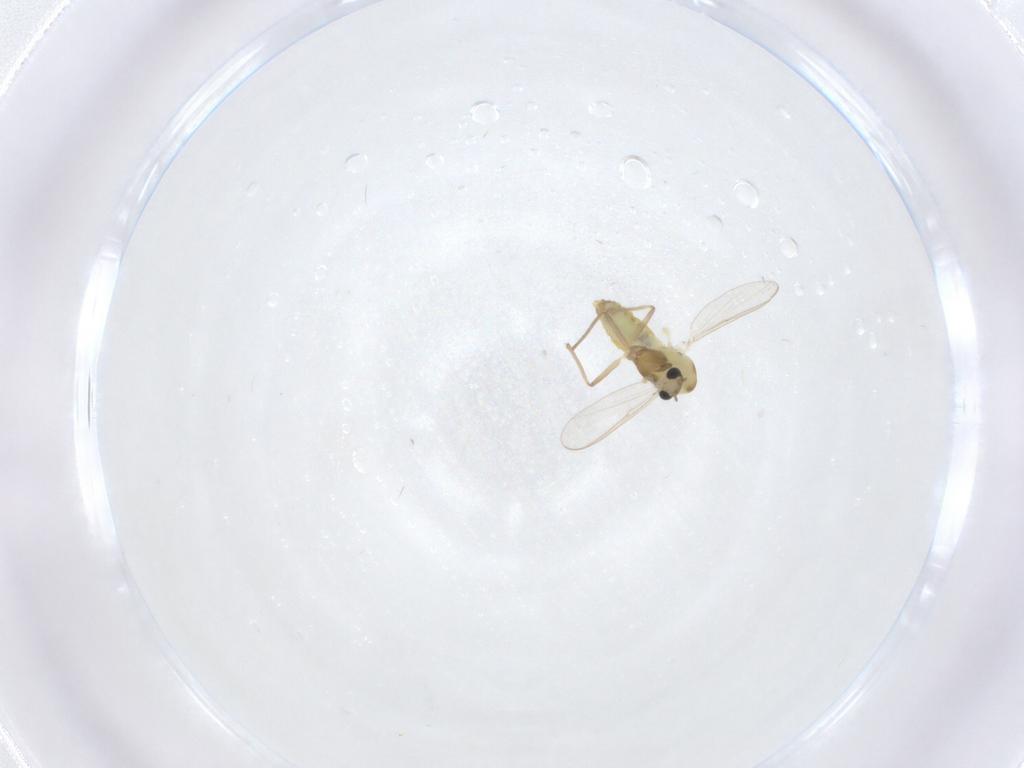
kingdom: Animalia
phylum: Arthropoda
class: Insecta
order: Diptera
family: Chironomidae
